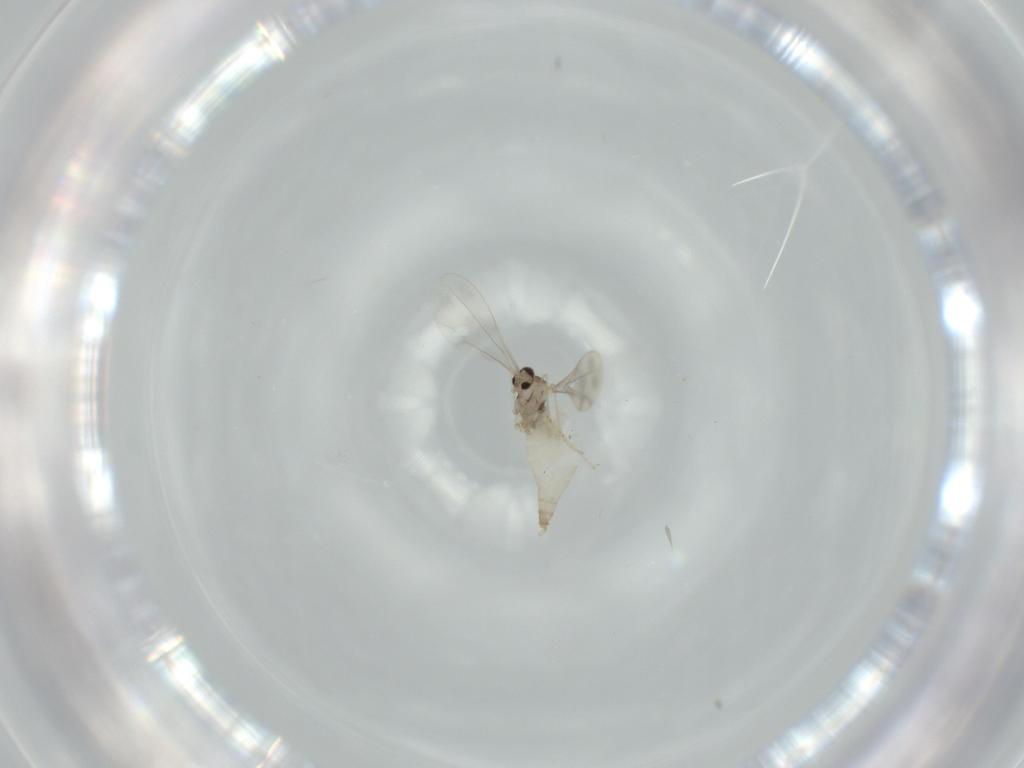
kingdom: Animalia
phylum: Arthropoda
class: Insecta
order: Diptera
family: Cecidomyiidae
